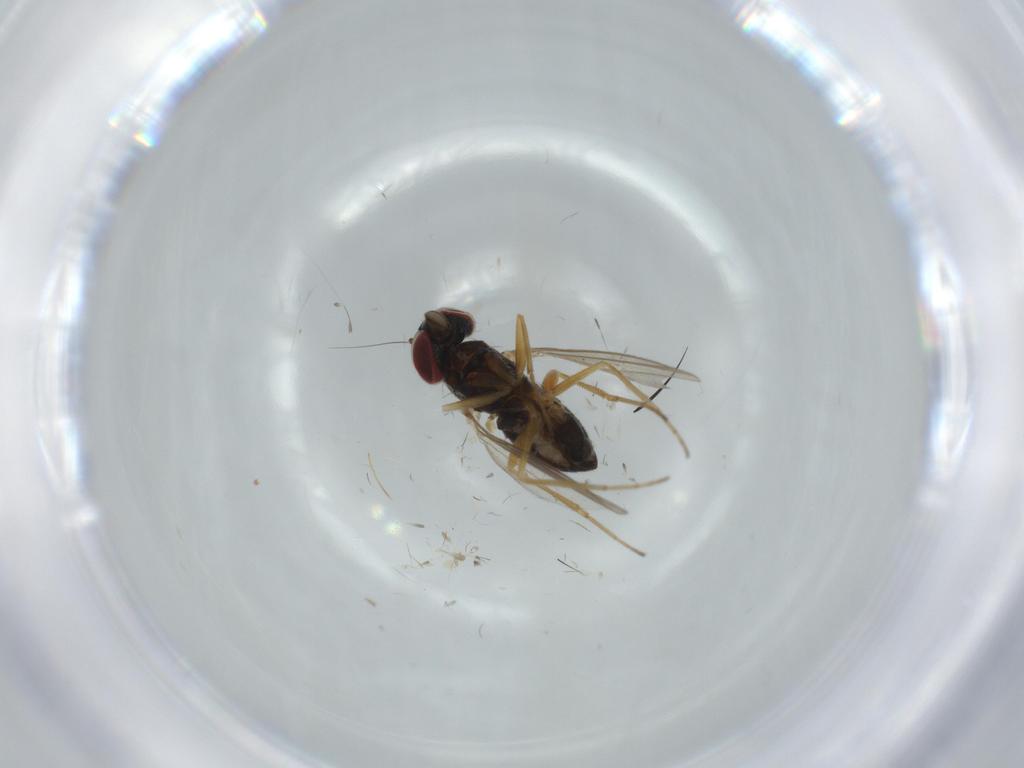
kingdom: Animalia
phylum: Arthropoda
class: Insecta
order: Diptera
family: Dolichopodidae
